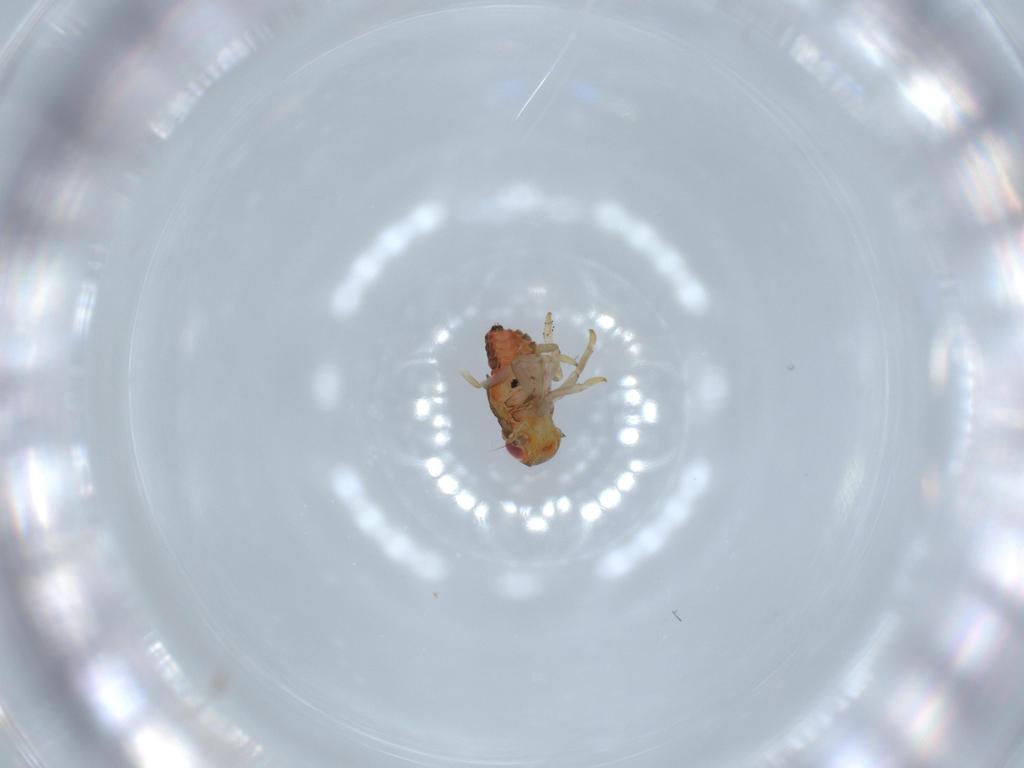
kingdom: Animalia
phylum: Arthropoda
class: Insecta
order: Hemiptera
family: Issidae
